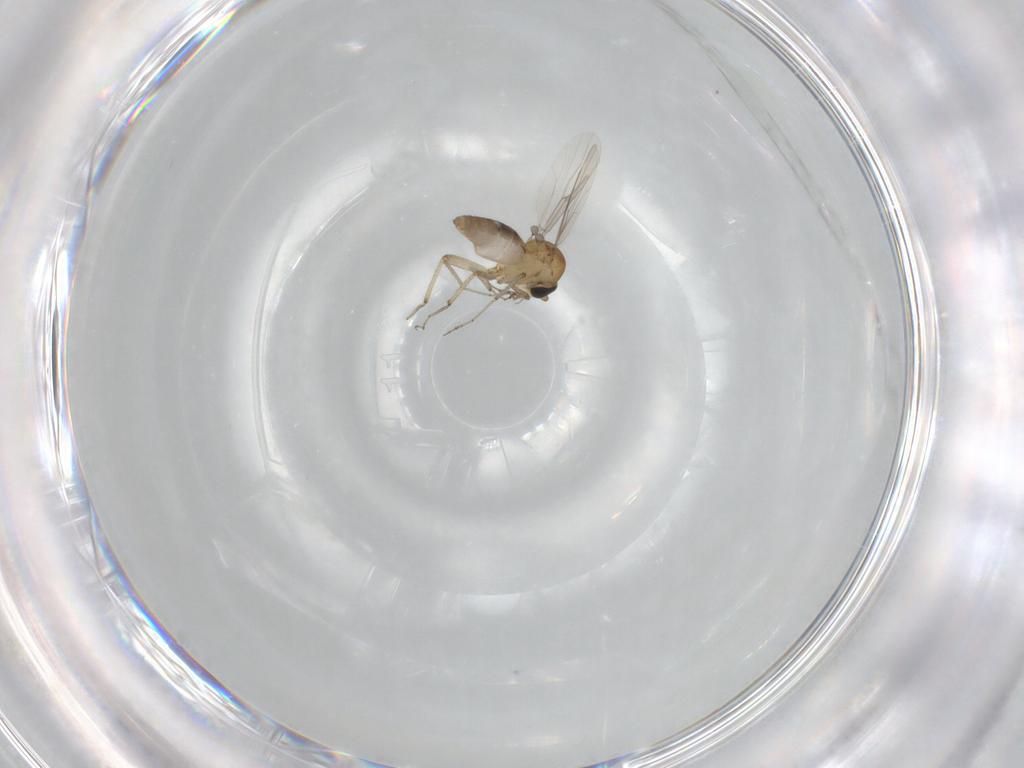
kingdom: Animalia
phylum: Arthropoda
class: Insecta
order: Diptera
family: Ceratopogonidae
